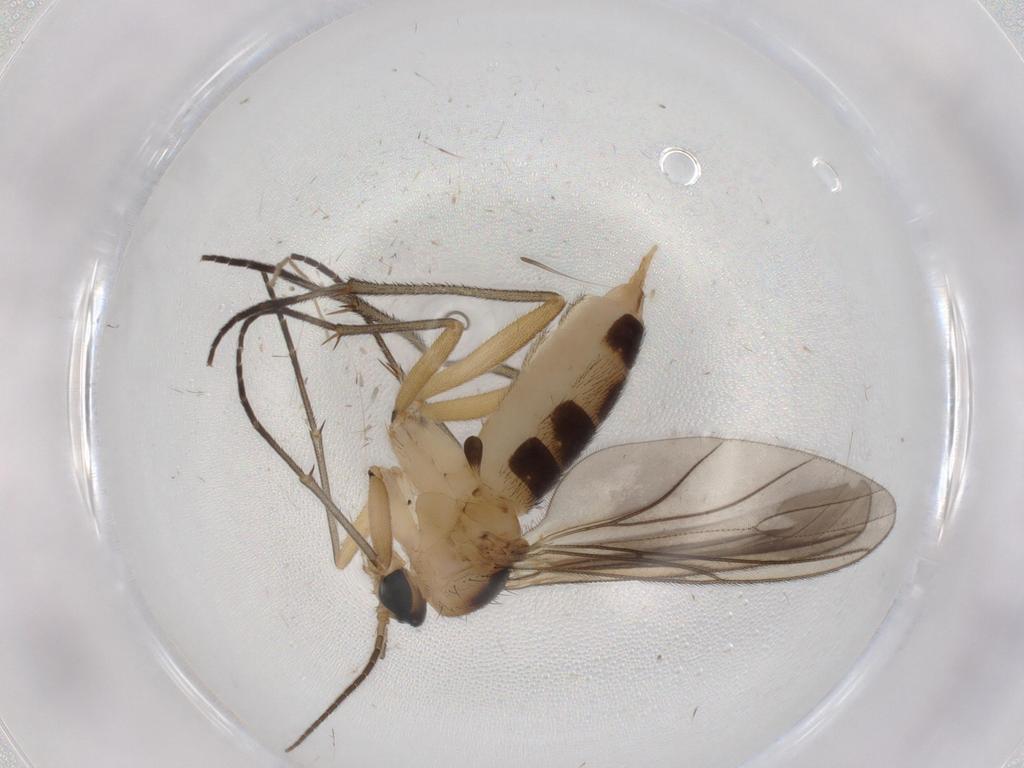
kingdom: Animalia
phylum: Arthropoda
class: Insecta
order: Diptera
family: Sciaridae
